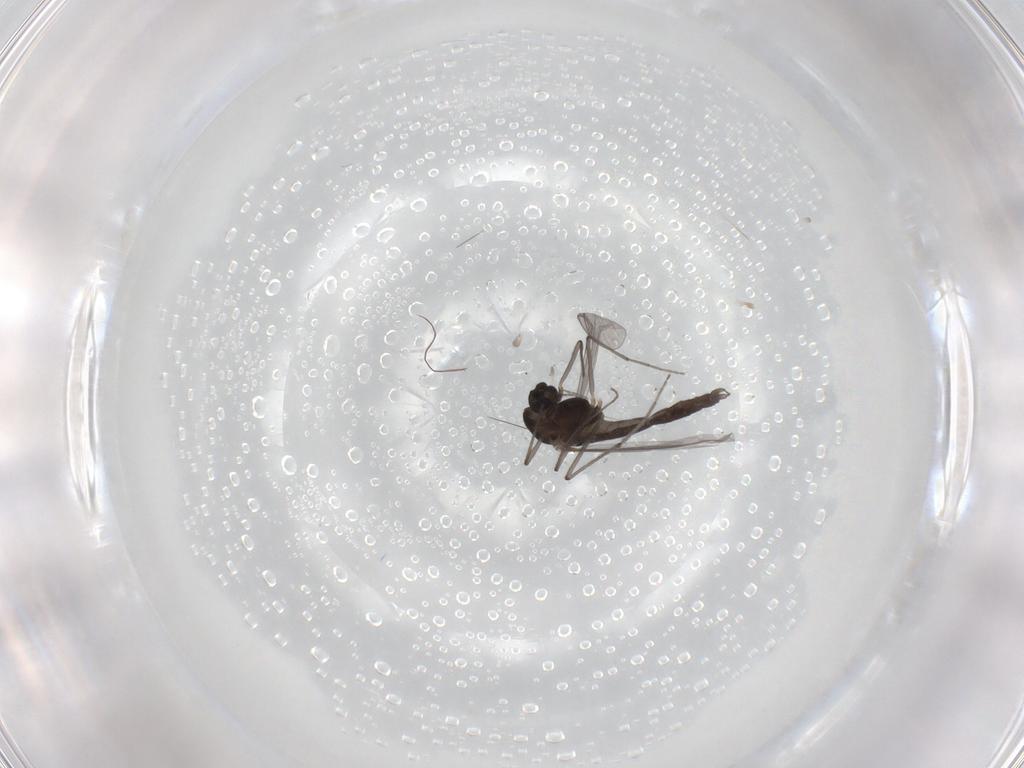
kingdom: Animalia
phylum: Arthropoda
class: Insecta
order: Diptera
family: Chironomidae
